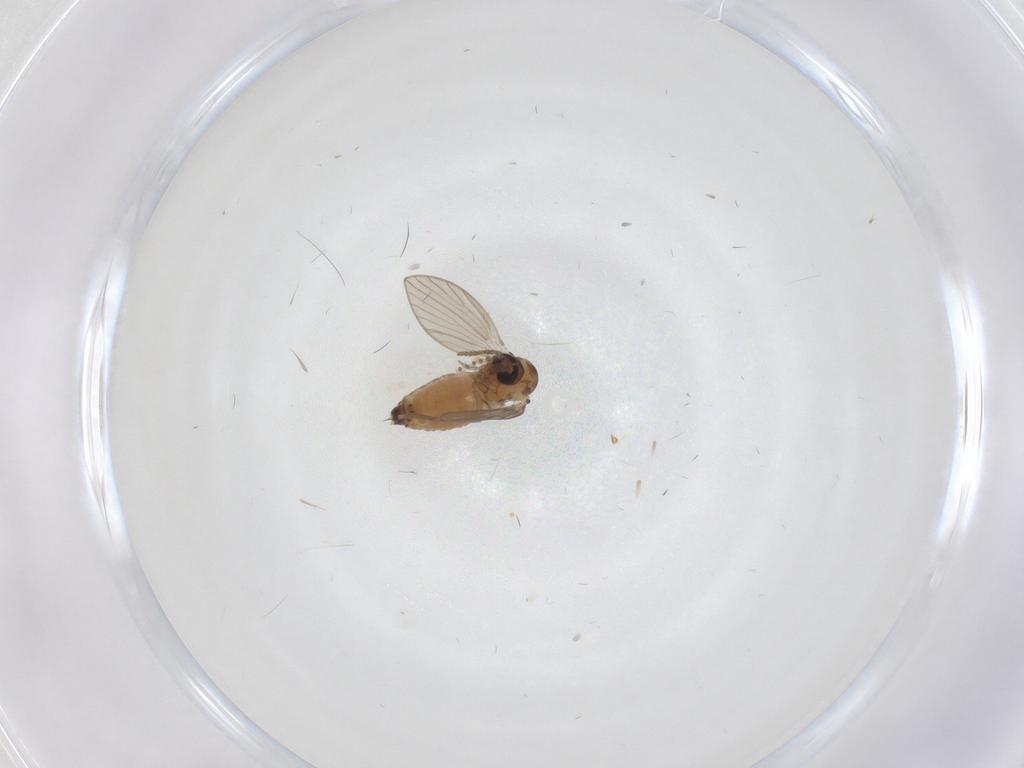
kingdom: Animalia
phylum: Arthropoda
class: Insecta
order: Diptera
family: Psychodidae
